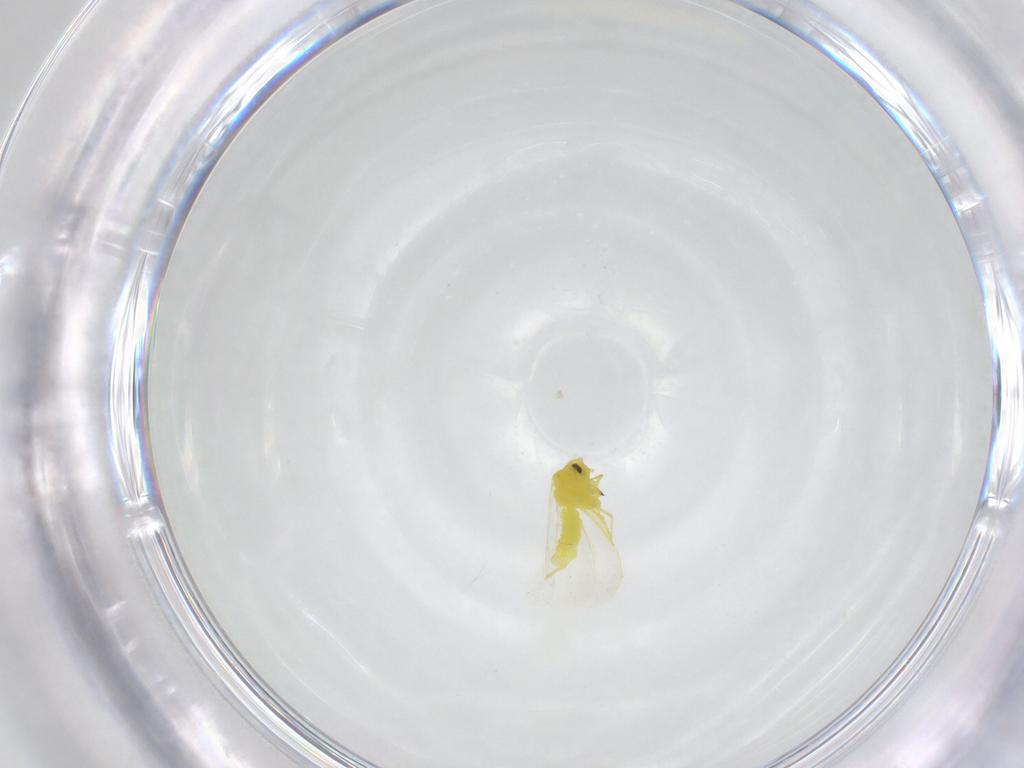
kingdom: Animalia
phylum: Arthropoda
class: Insecta
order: Hemiptera
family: Aleyrodidae
